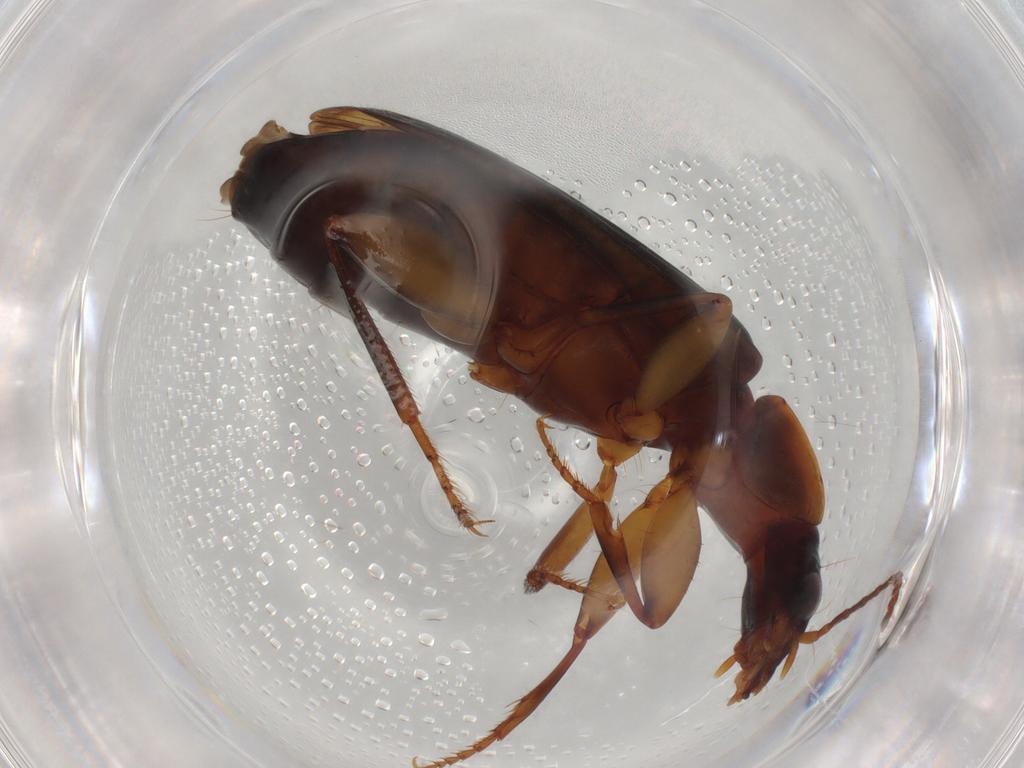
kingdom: Animalia
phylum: Arthropoda
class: Insecta
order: Coleoptera
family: Carabidae
